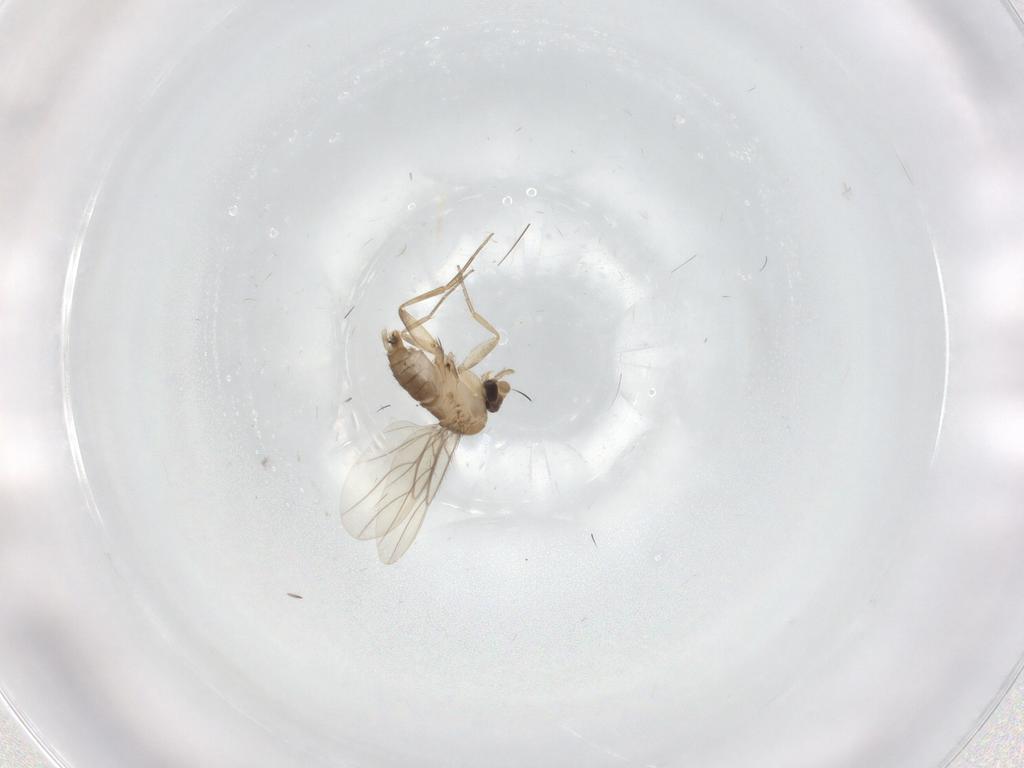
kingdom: Animalia
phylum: Arthropoda
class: Insecta
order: Diptera
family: Phoridae
